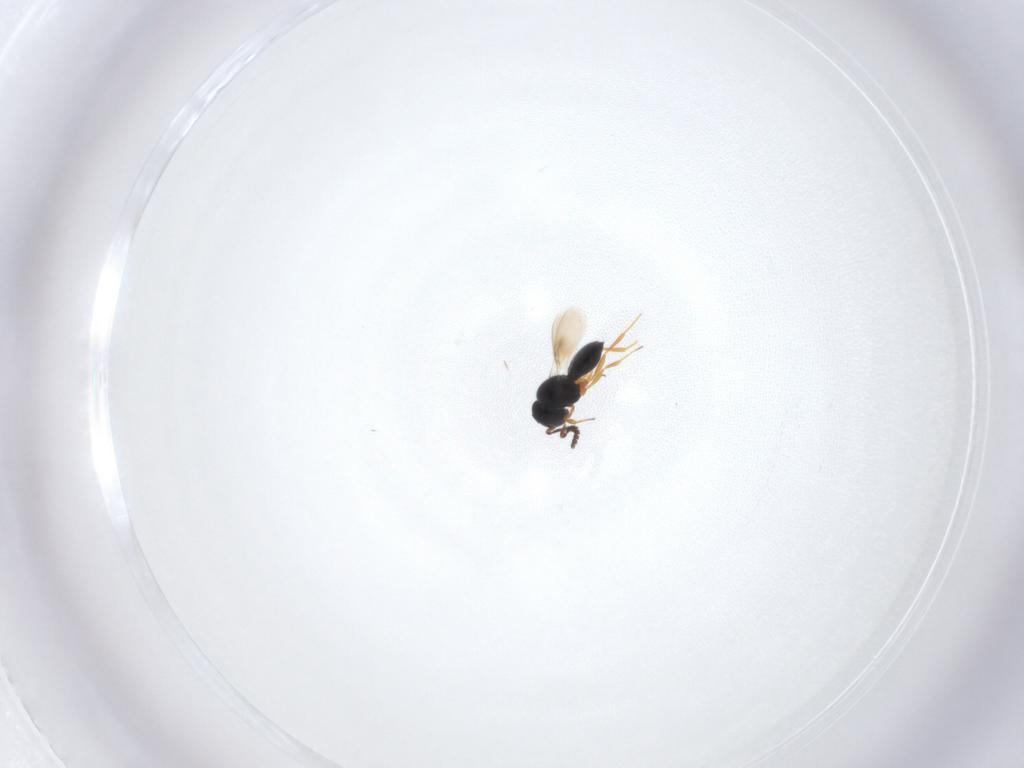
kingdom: Animalia
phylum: Arthropoda
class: Insecta
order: Hymenoptera
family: Scelionidae
